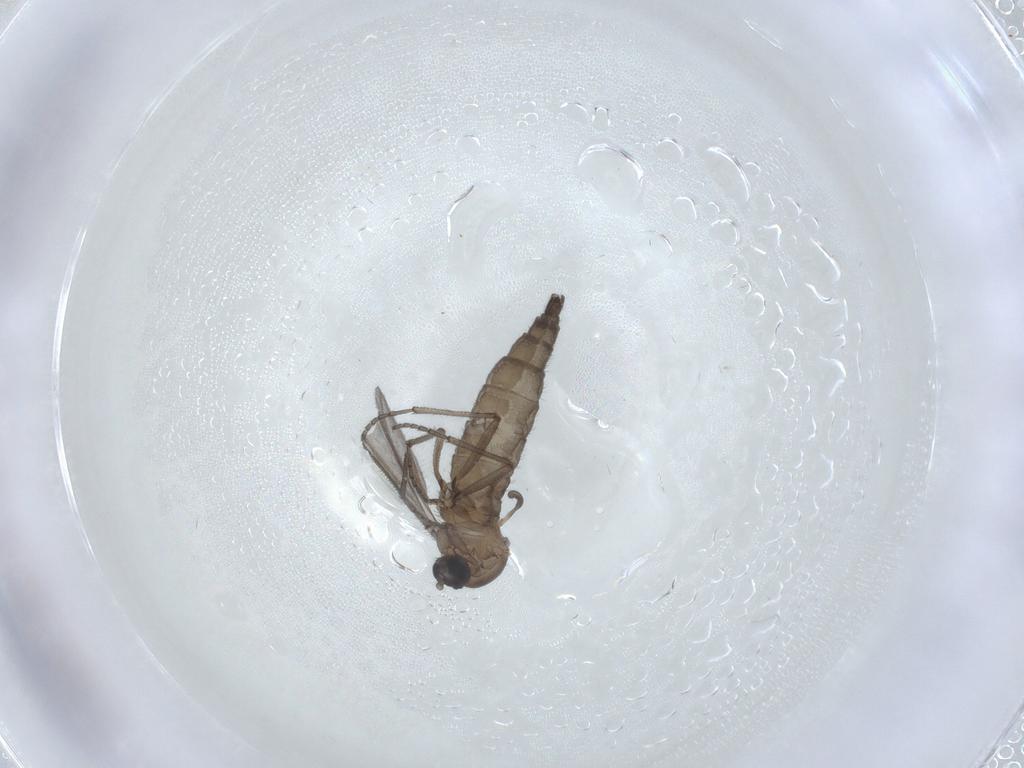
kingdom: Animalia
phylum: Arthropoda
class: Insecta
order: Diptera
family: Sciaridae
